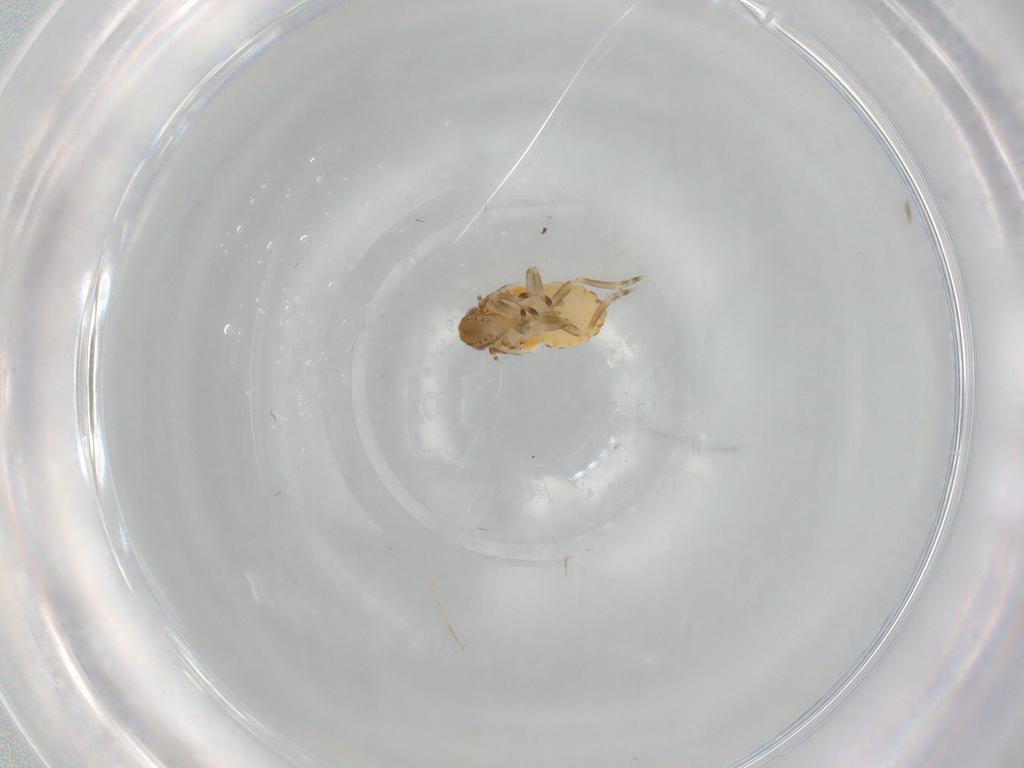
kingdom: Animalia
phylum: Arthropoda
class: Insecta
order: Hemiptera
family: Flatidae
